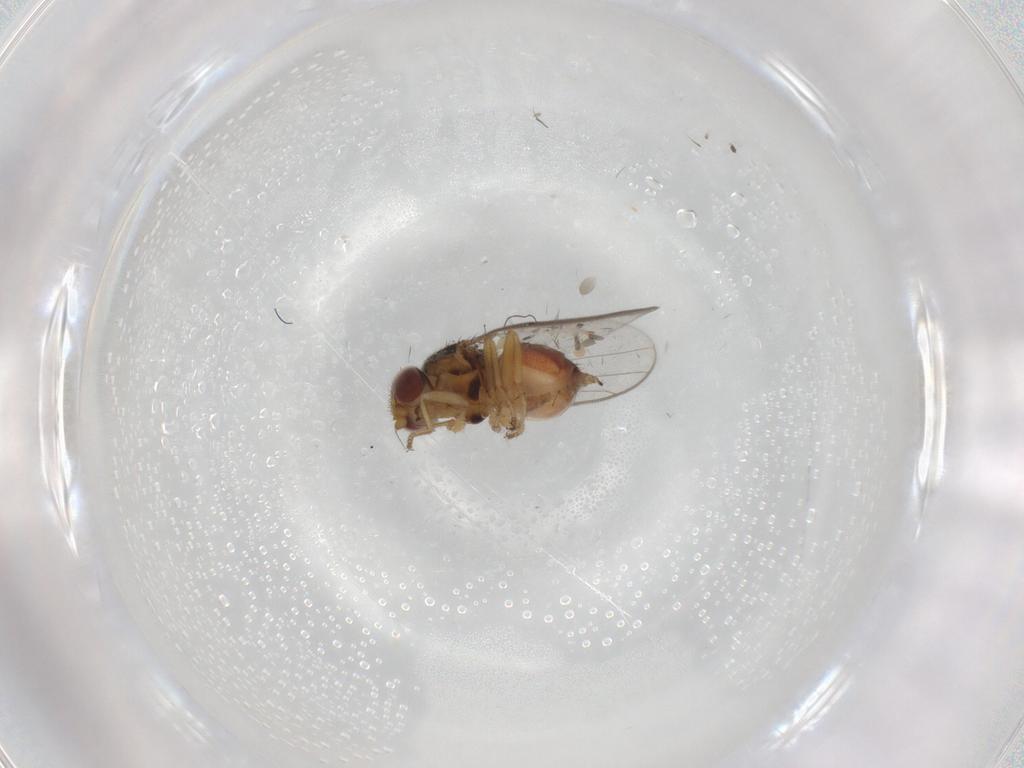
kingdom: Animalia
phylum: Arthropoda
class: Insecta
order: Diptera
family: Chloropidae
